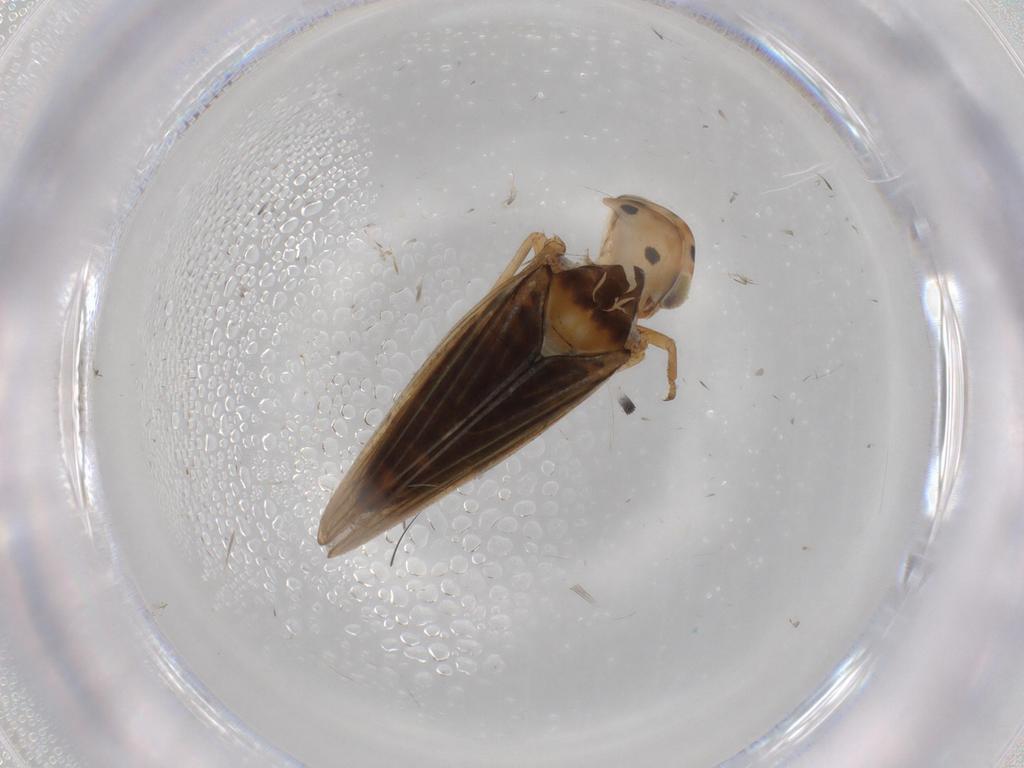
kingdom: Animalia
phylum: Arthropoda
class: Insecta
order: Hemiptera
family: Cicadellidae
